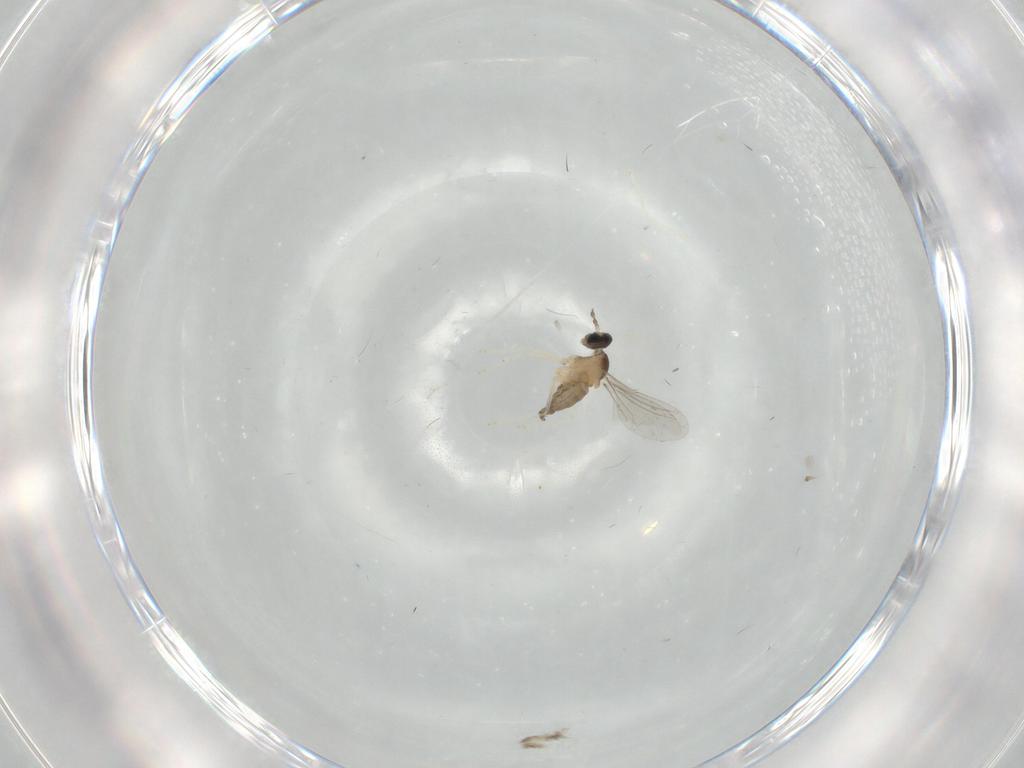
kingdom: Animalia
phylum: Arthropoda
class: Insecta
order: Diptera
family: Cecidomyiidae
